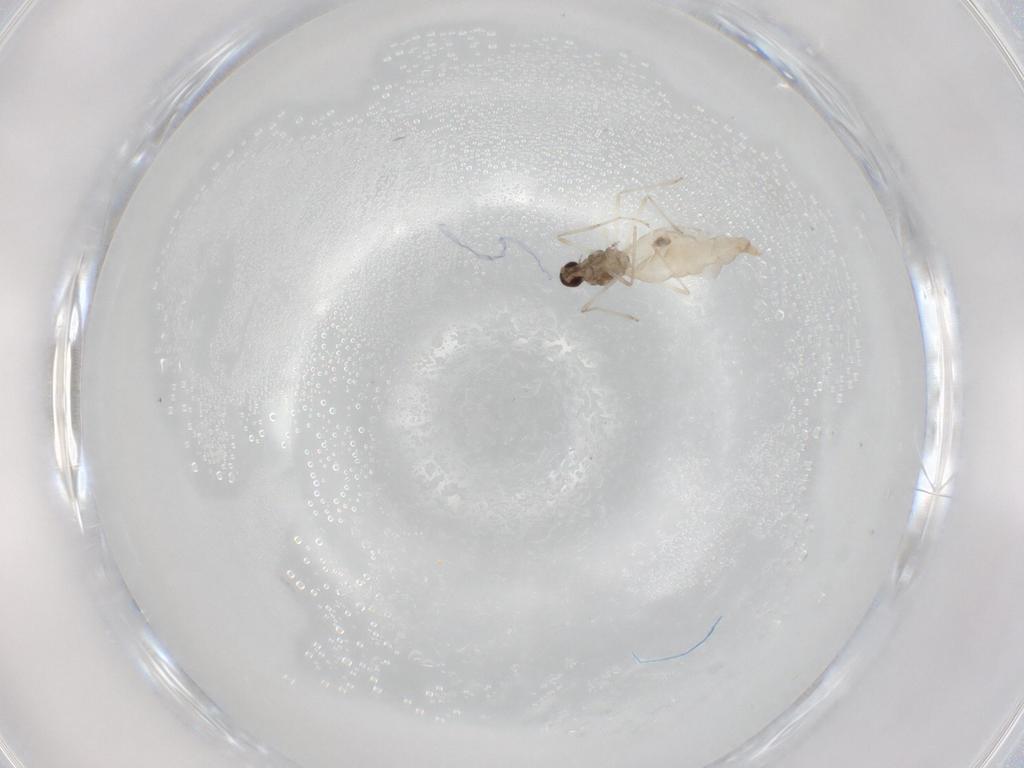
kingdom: Animalia
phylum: Arthropoda
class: Insecta
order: Diptera
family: Cecidomyiidae
